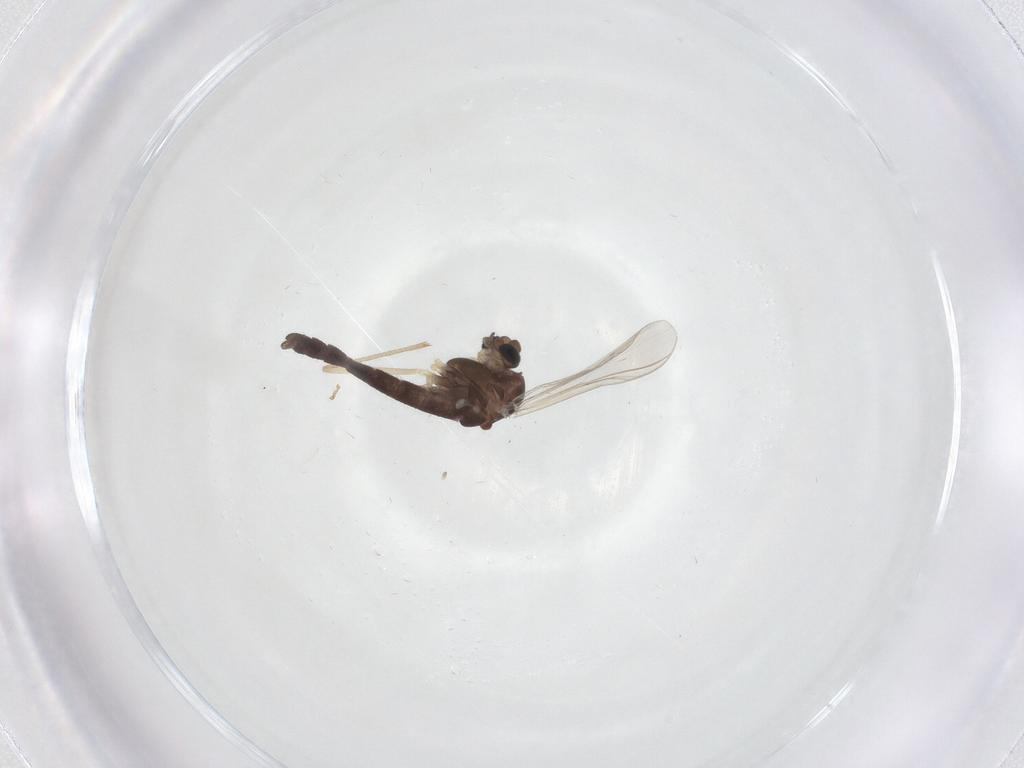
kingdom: Animalia
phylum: Arthropoda
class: Insecta
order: Diptera
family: Chironomidae
